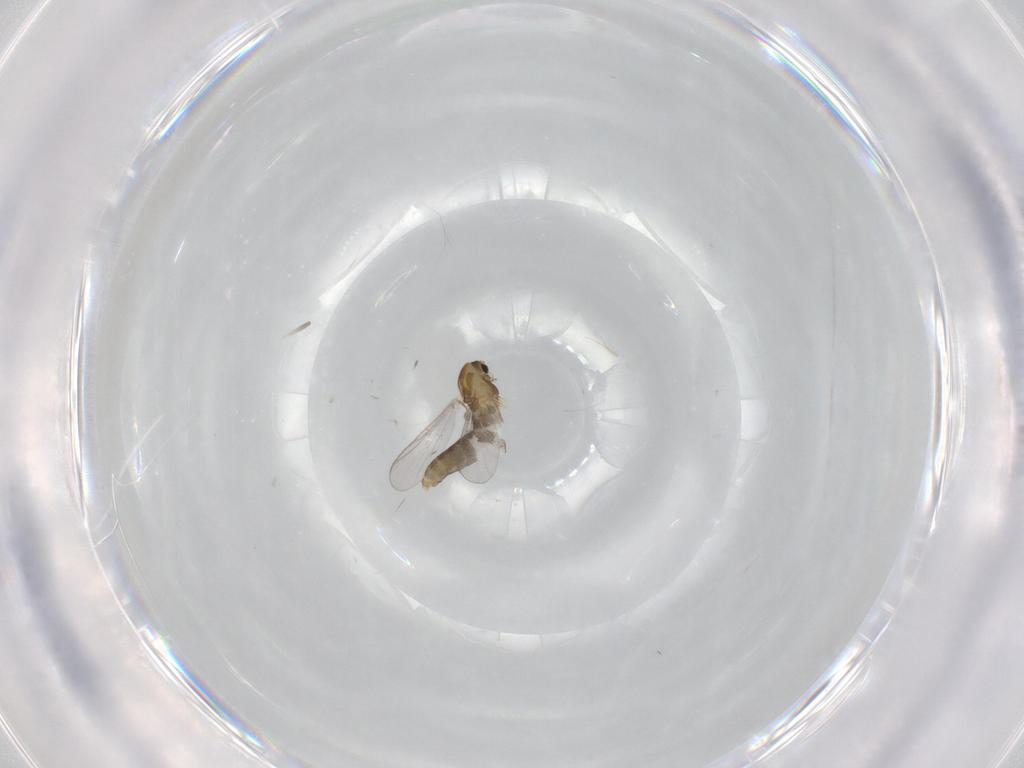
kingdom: Animalia
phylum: Arthropoda
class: Insecta
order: Diptera
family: Chironomidae
